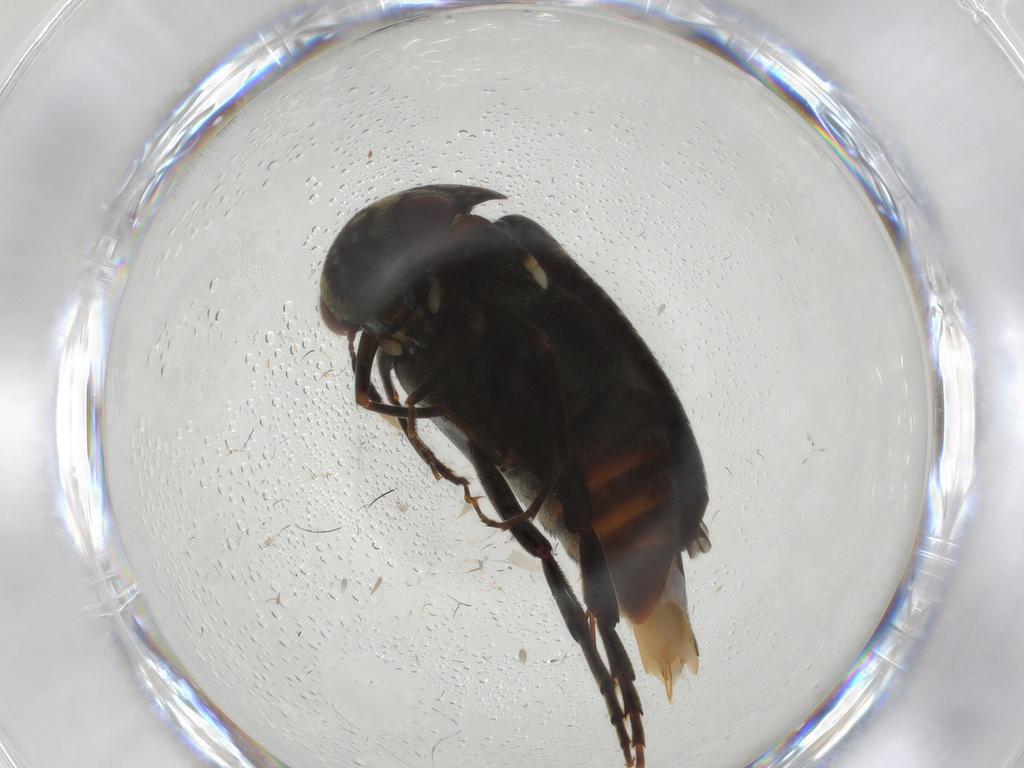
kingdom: Animalia
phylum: Arthropoda
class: Insecta
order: Coleoptera
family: Mordellidae
